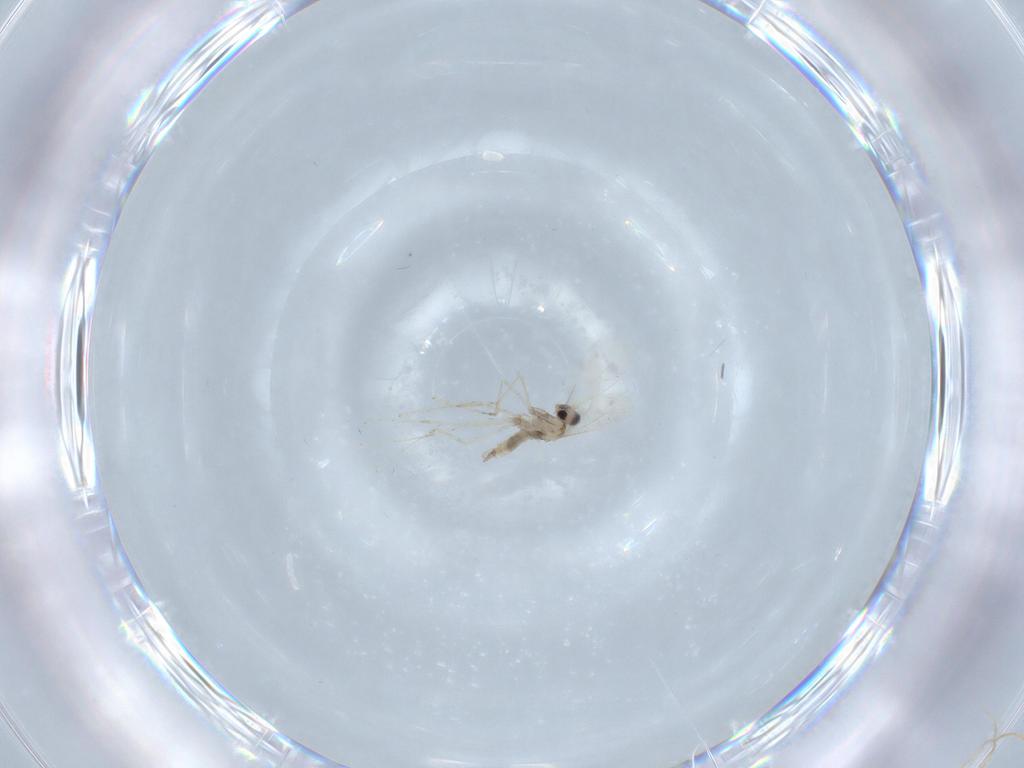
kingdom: Animalia
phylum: Arthropoda
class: Insecta
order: Diptera
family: Cecidomyiidae
